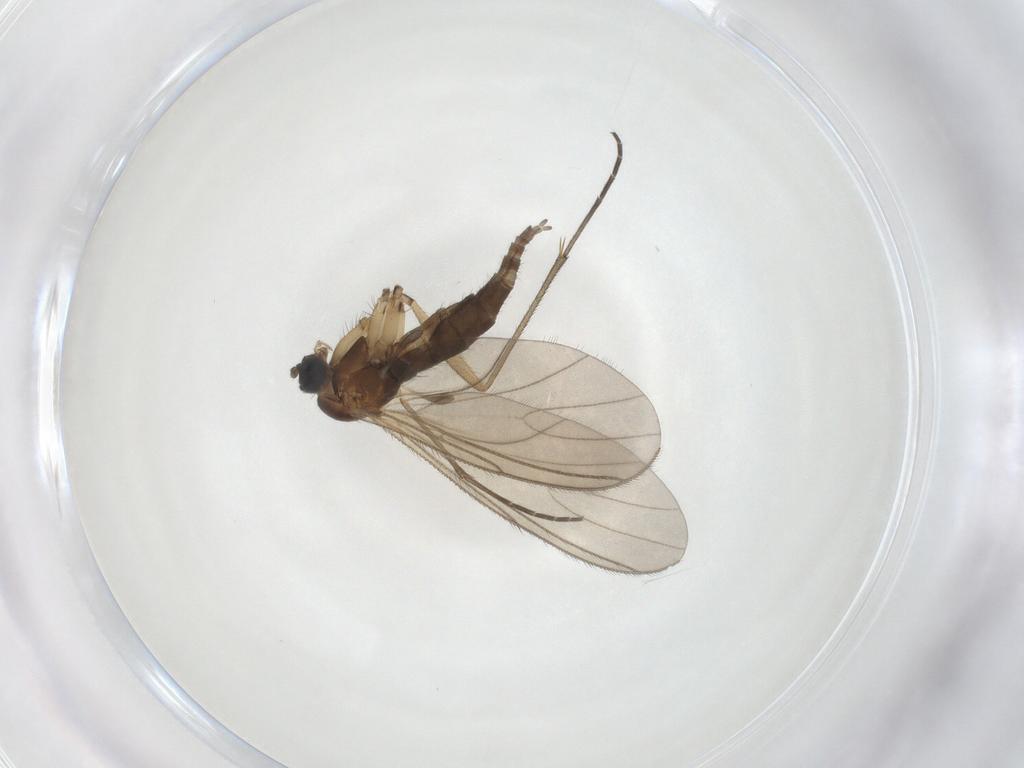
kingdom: Animalia
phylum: Arthropoda
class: Insecta
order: Diptera
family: Sciaridae
